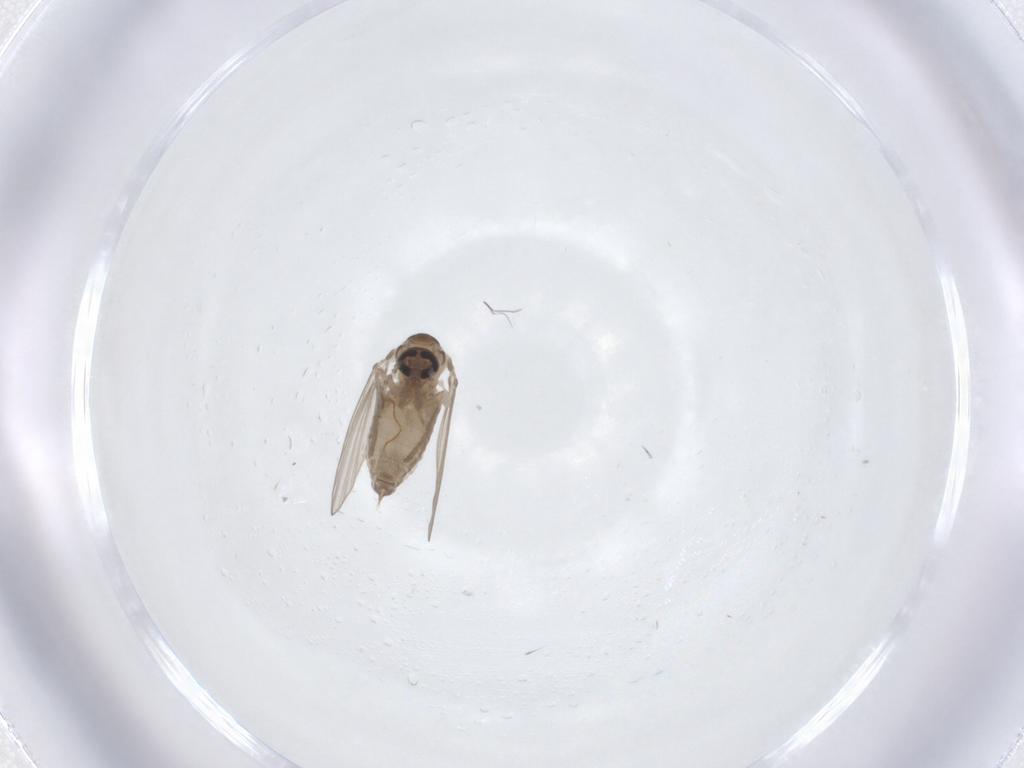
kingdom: Animalia
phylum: Arthropoda
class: Insecta
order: Diptera
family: Psychodidae
